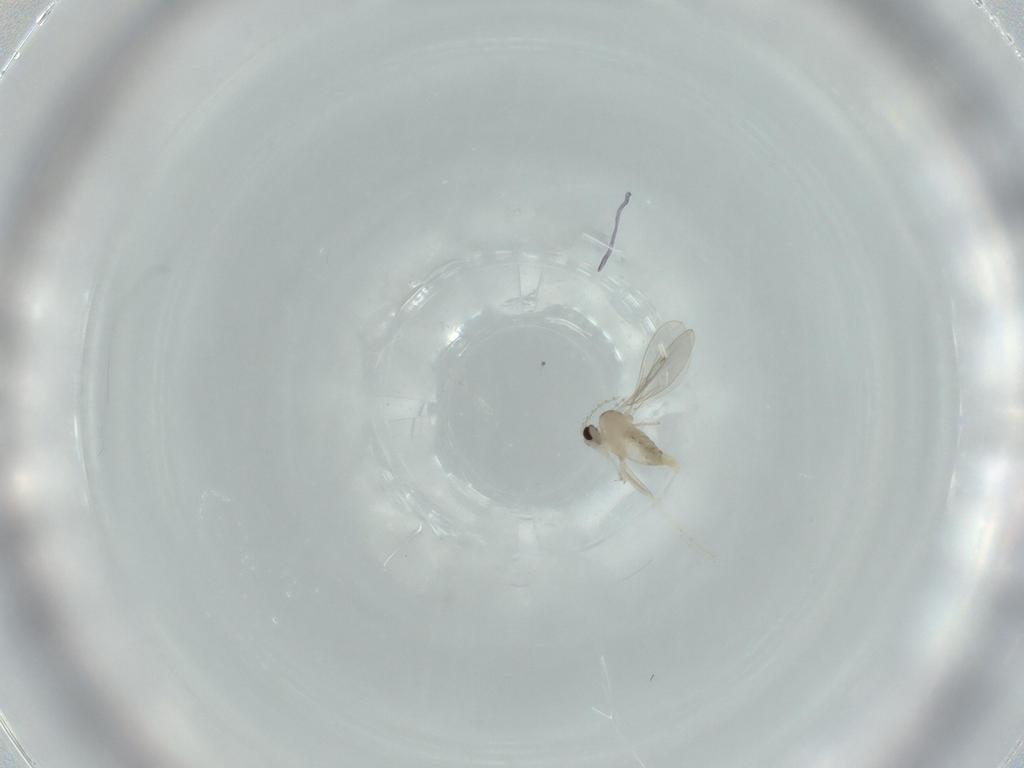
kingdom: Animalia
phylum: Arthropoda
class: Insecta
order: Diptera
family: Cecidomyiidae
